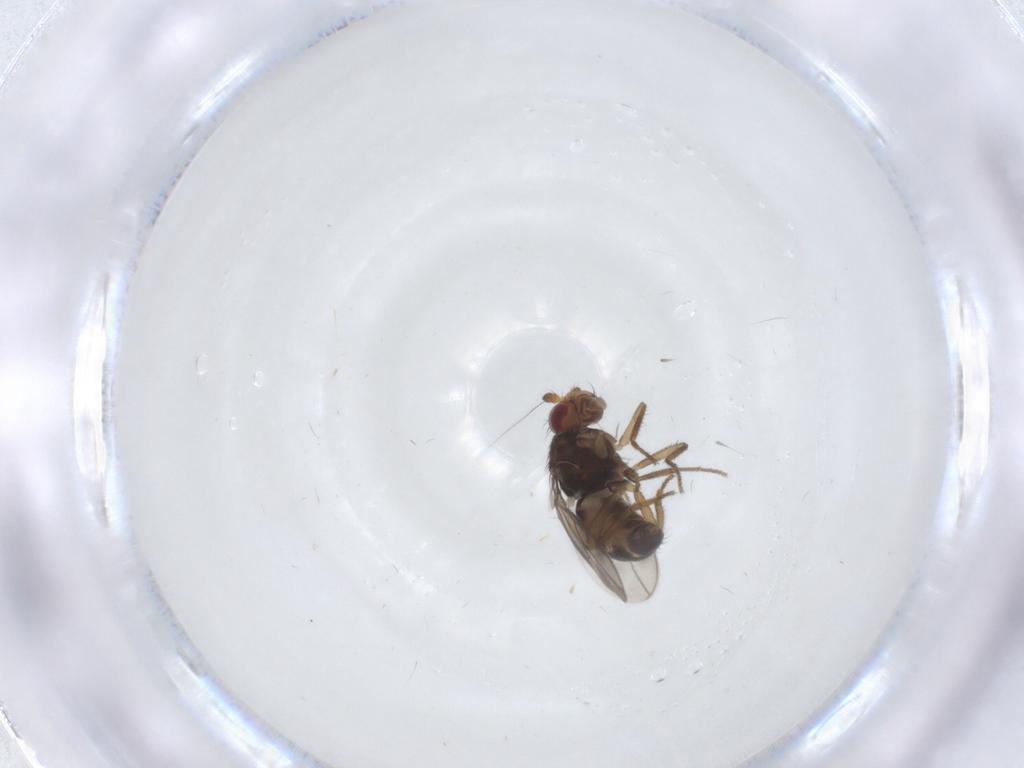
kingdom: Animalia
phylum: Arthropoda
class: Insecta
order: Diptera
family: Sphaeroceridae
